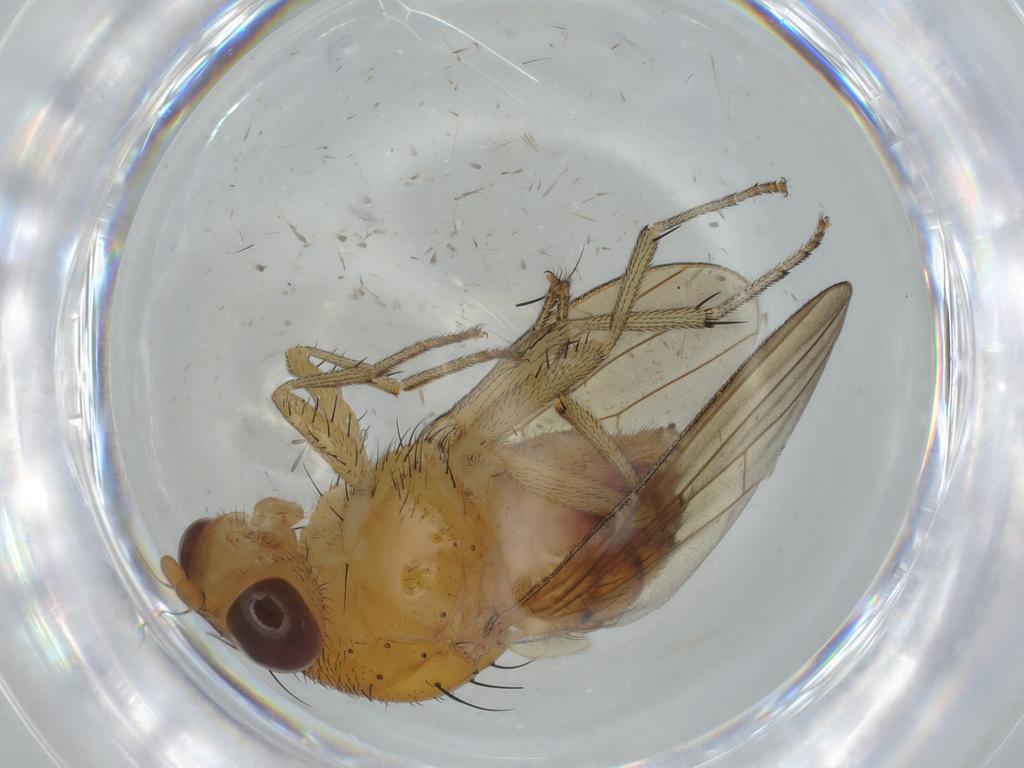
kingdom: Animalia
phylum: Arthropoda
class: Insecta
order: Diptera
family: Lauxaniidae
